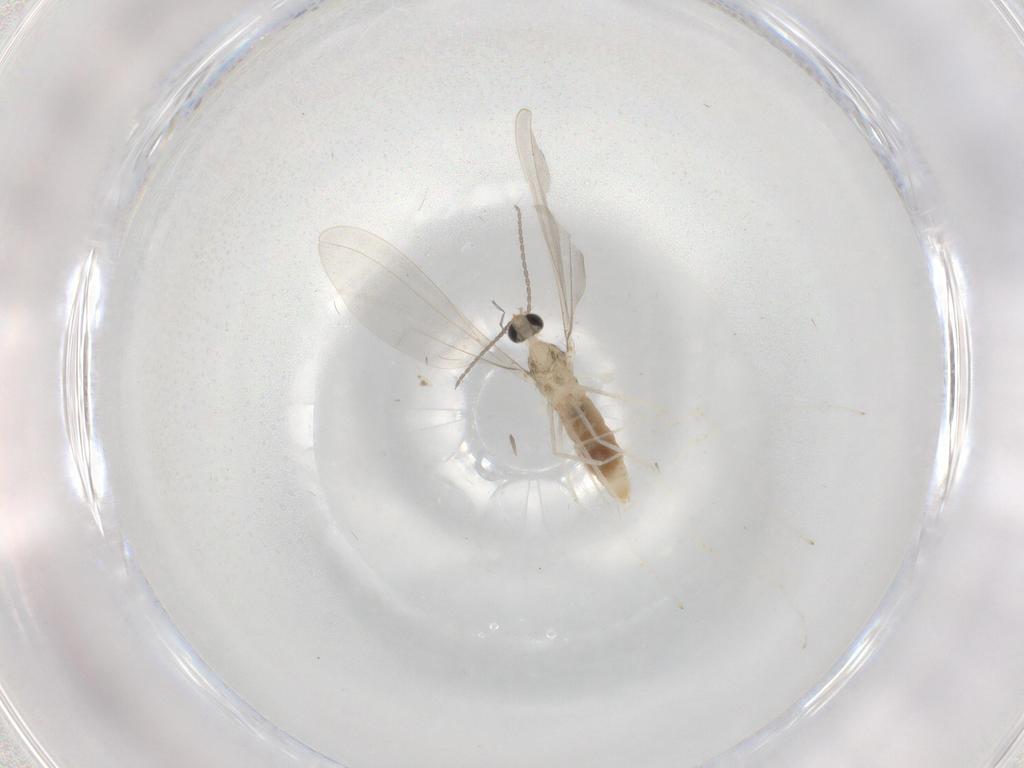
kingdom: Animalia
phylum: Arthropoda
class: Insecta
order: Diptera
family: Cecidomyiidae
